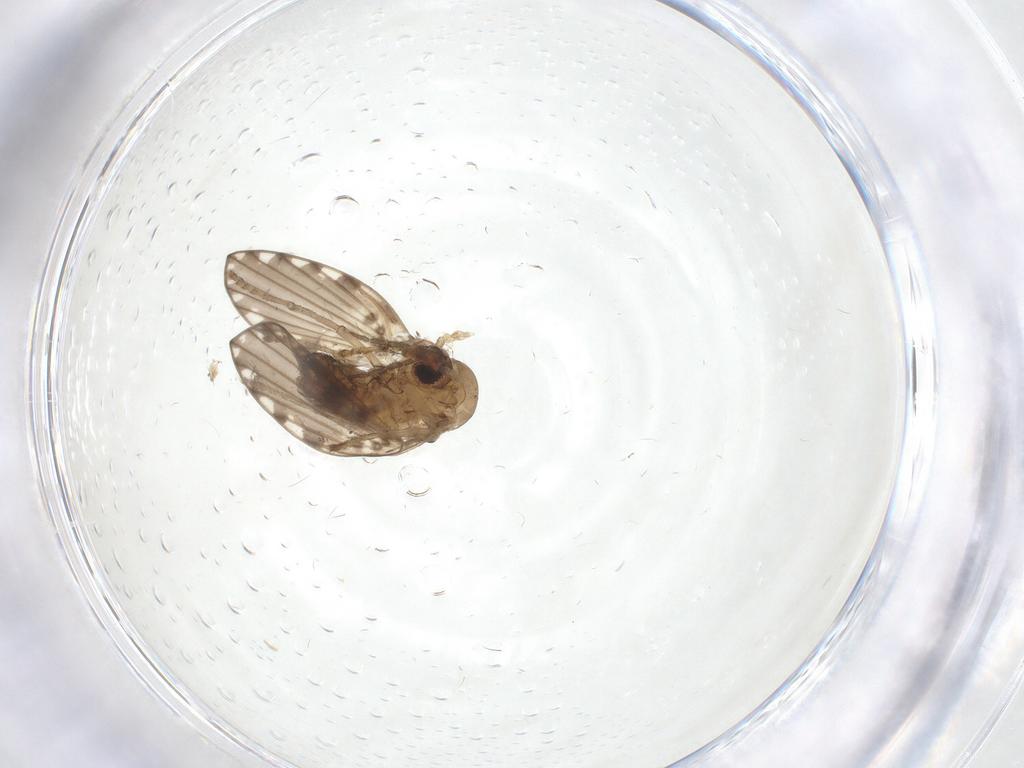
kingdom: Animalia
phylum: Arthropoda
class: Insecta
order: Diptera
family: Psychodidae
